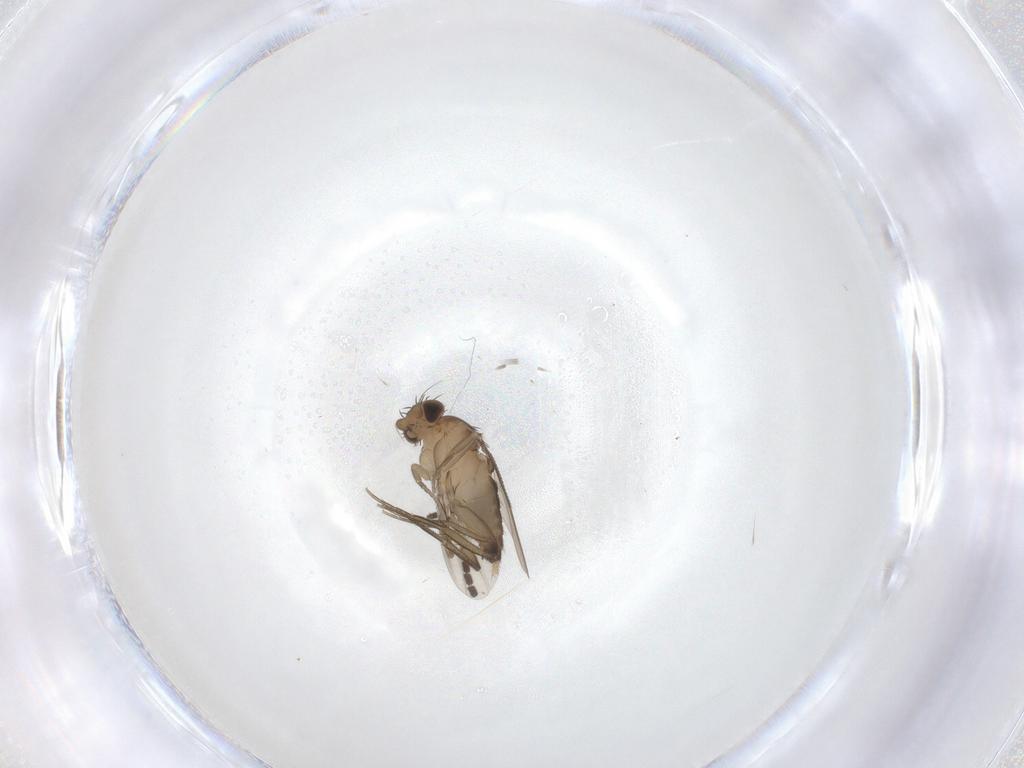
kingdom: Animalia
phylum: Arthropoda
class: Insecta
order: Diptera
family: Sciaridae
